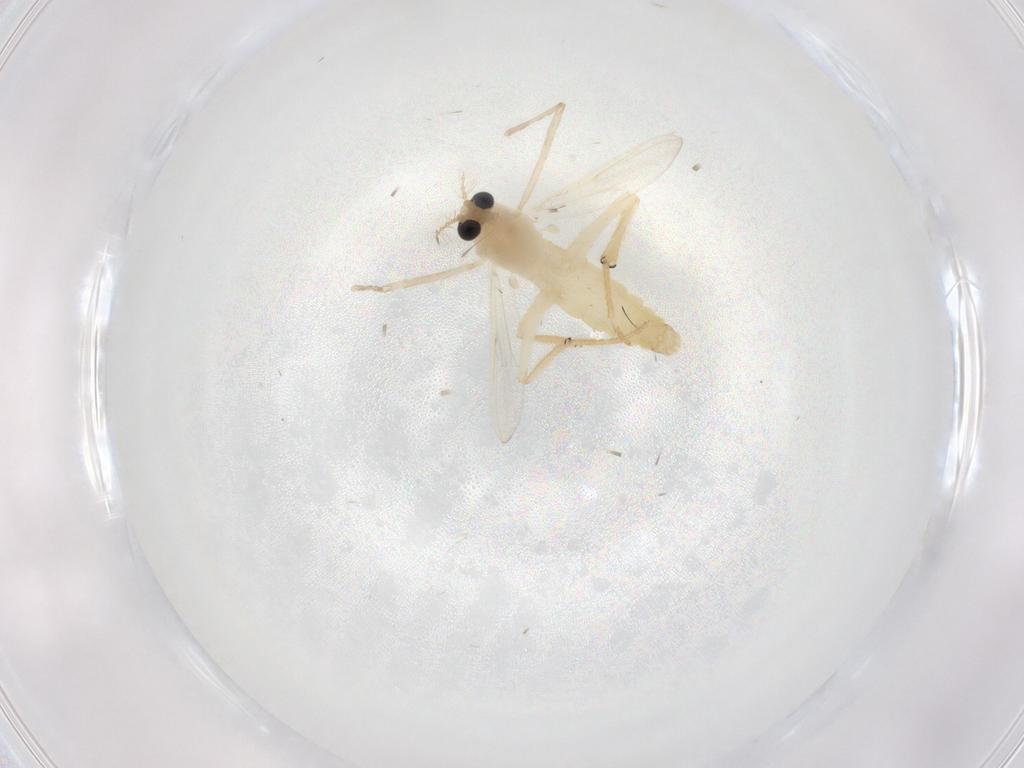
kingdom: Animalia
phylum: Arthropoda
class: Insecta
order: Diptera
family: Chironomidae
